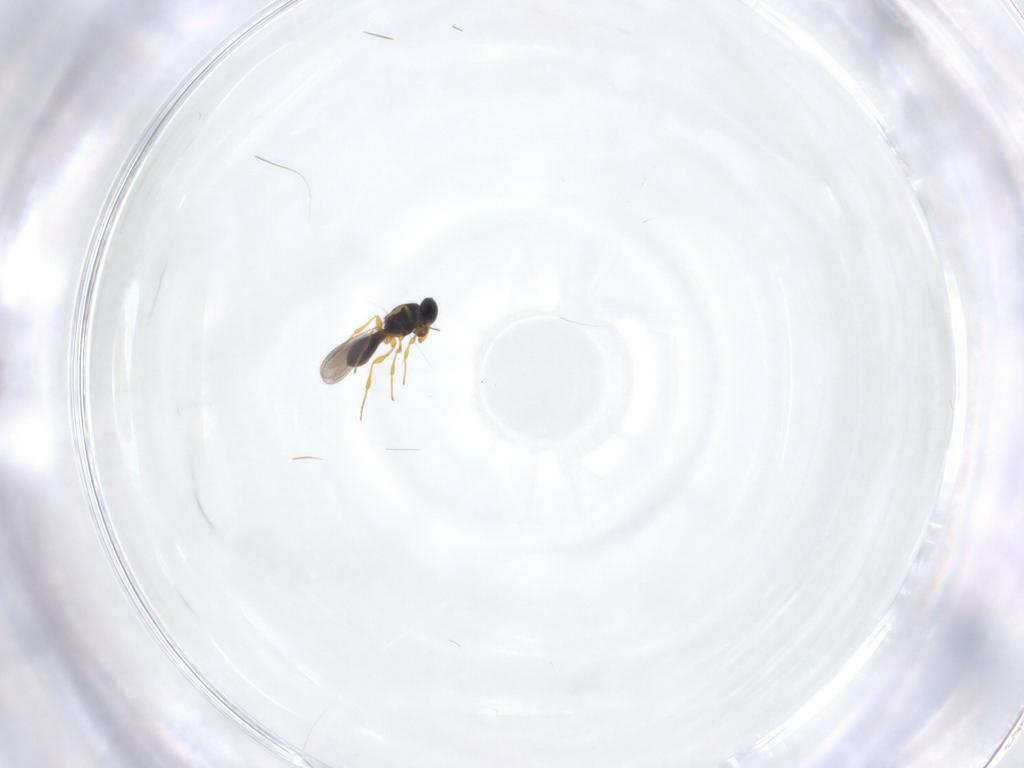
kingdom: Animalia
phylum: Arthropoda
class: Insecta
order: Hymenoptera
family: Platygastridae
